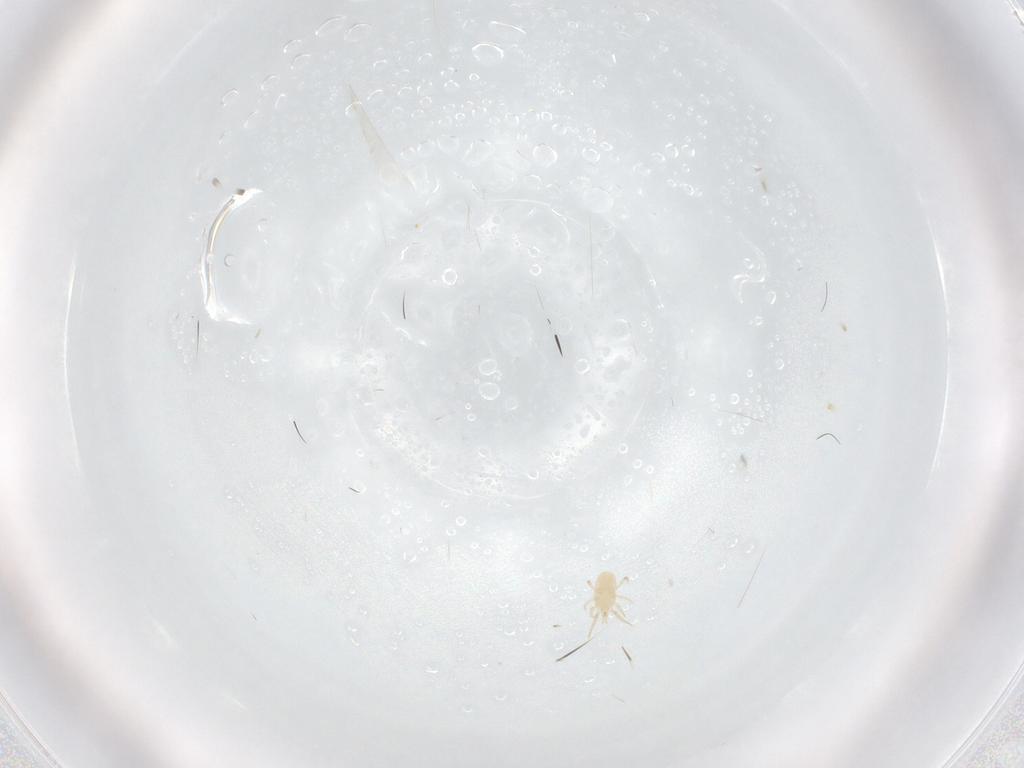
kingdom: Animalia
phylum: Arthropoda
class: Arachnida
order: Mesostigmata
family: Phytoseiidae
